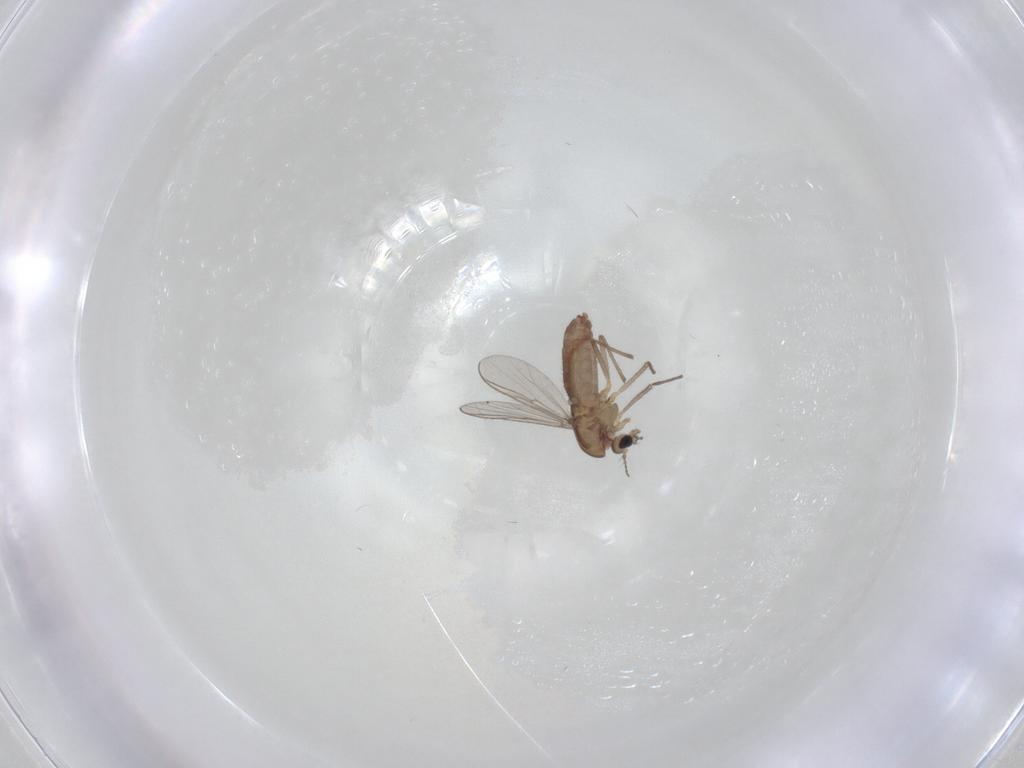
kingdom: Animalia
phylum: Arthropoda
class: Insecta
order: Diptera
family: Chironomidae
